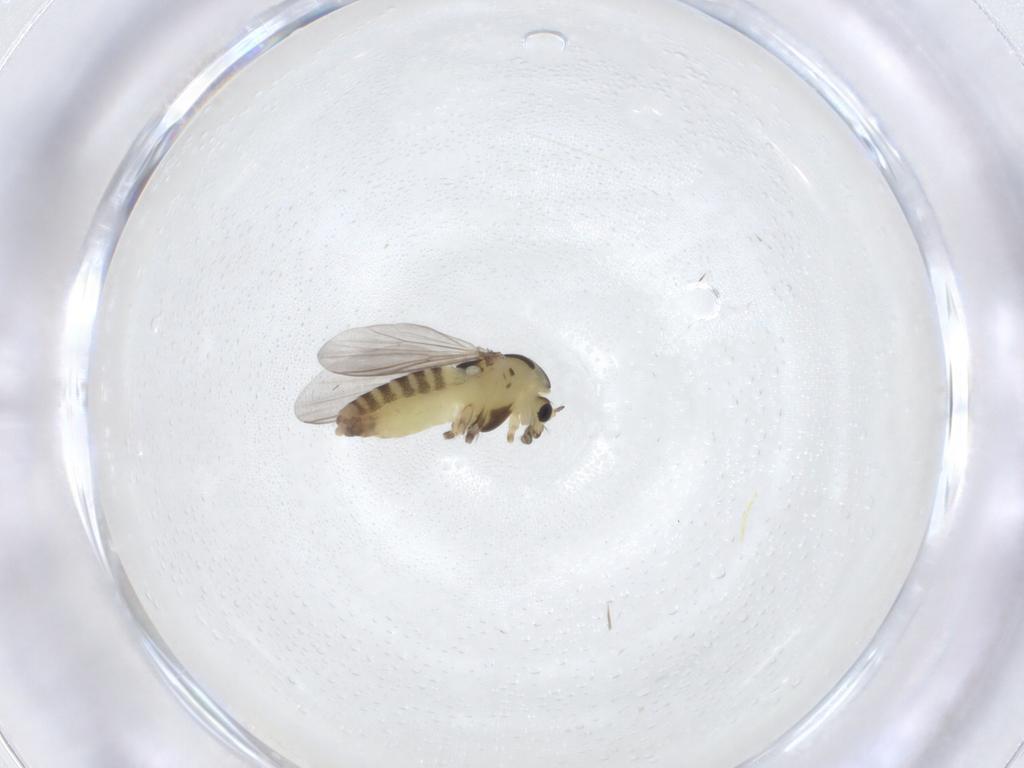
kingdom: Animalia
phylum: Arthropoda
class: Insecta
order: Diptera
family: Chironomidae
